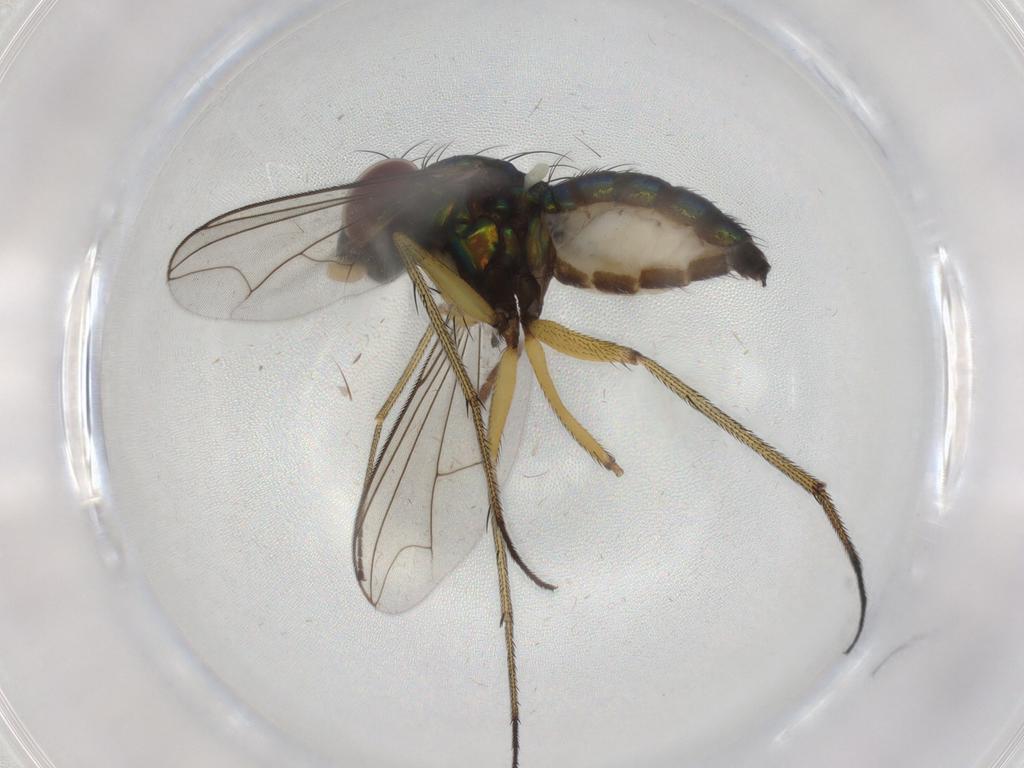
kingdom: Animalia
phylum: Arthropoda
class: Insecta
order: Diptera
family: Dolichopodidae
